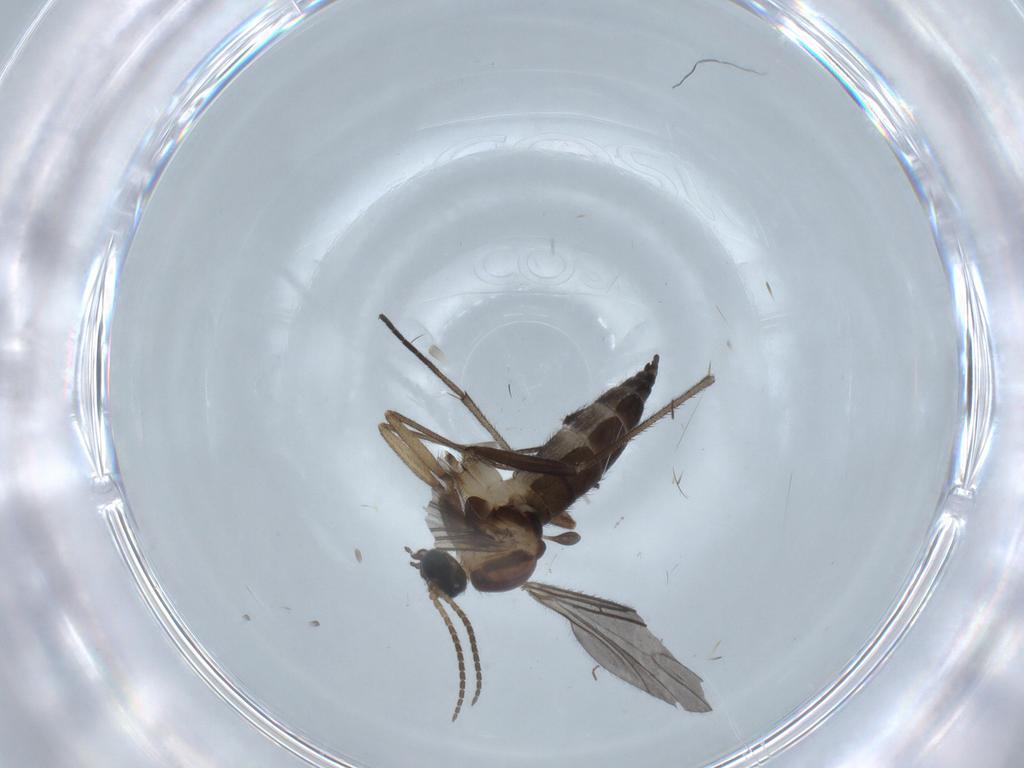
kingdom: Animalia
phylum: Arthropoda
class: Insecta
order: Diptera
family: Sciaridae
